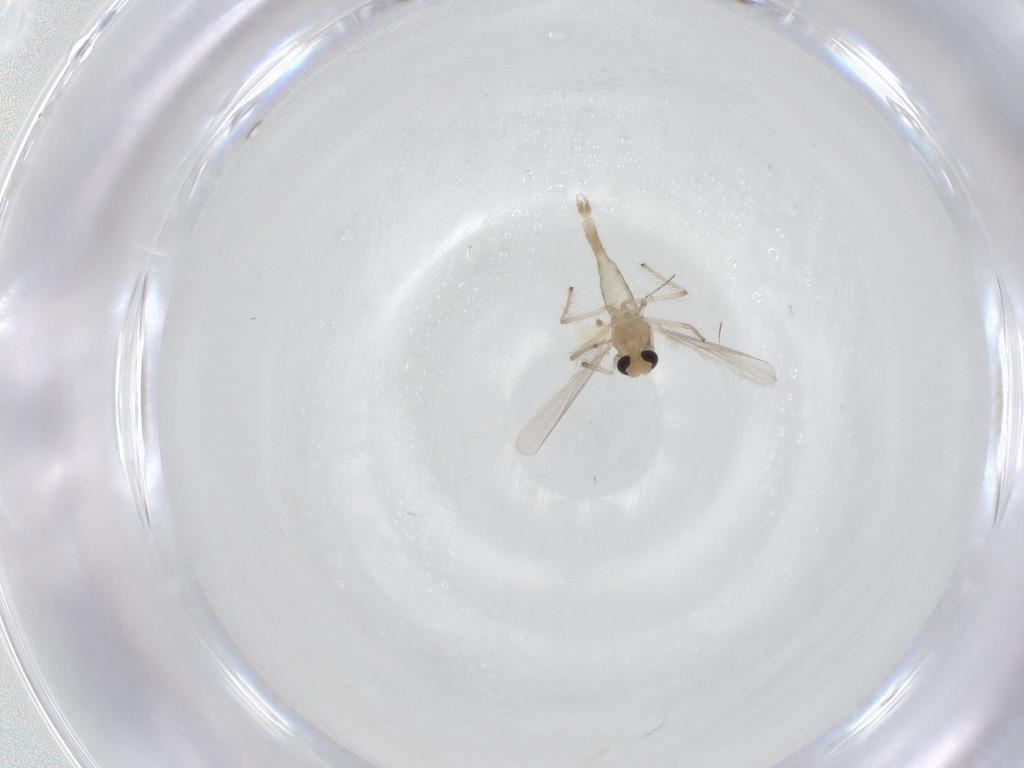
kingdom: Animalia
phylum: Arthropoda
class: Insecta
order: Diptera
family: Ceratopogonidae
